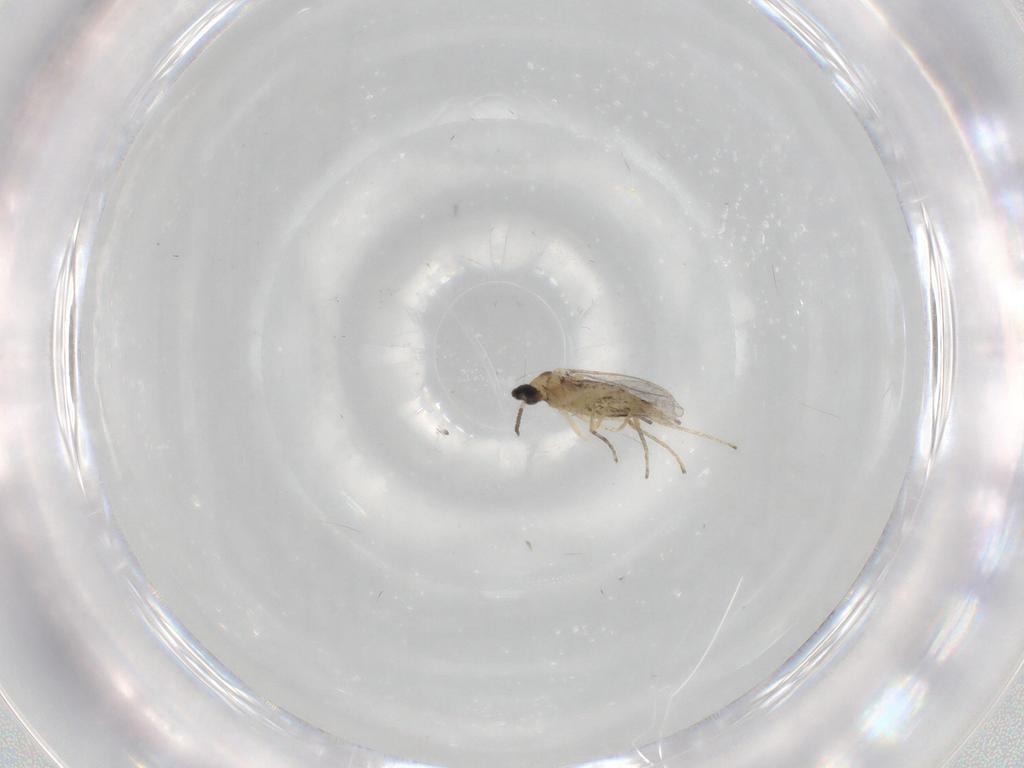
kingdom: Animalia
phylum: Arthropoda
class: Insecta
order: Diptera
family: Cecidomyiidae
